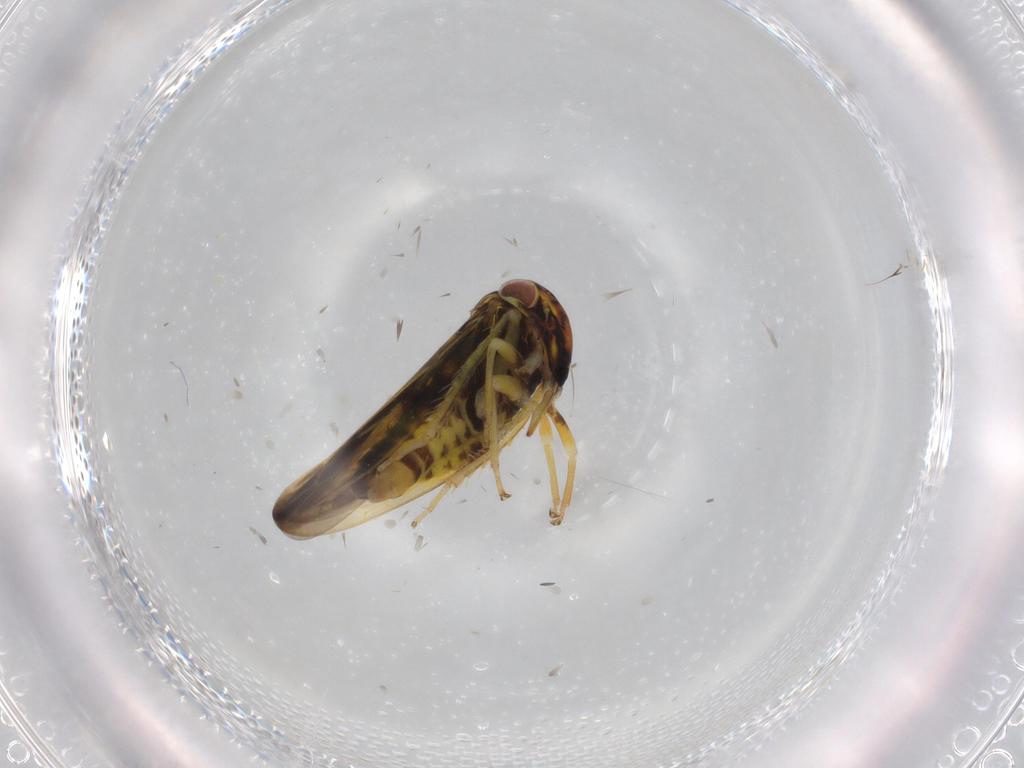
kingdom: Animalia
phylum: Arthropoda
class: Insecta
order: Hemiptera
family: Cicadellidae
